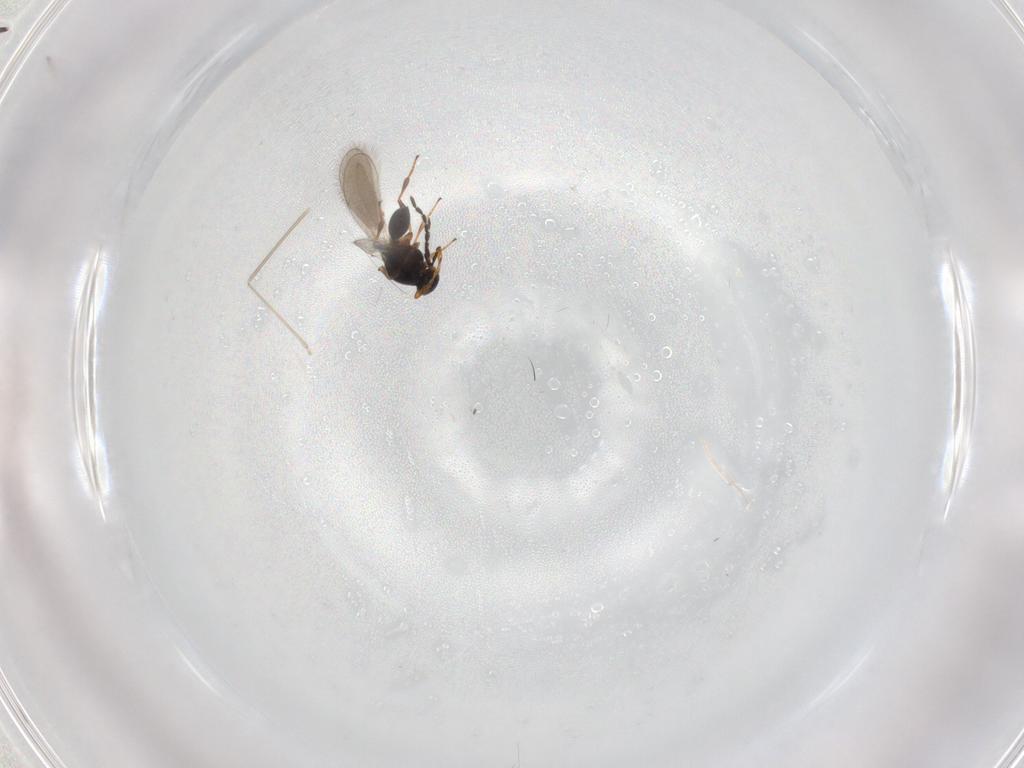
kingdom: Animalia
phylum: Arthropoda
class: Insecta
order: Hymenoptera
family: Platygastridae
